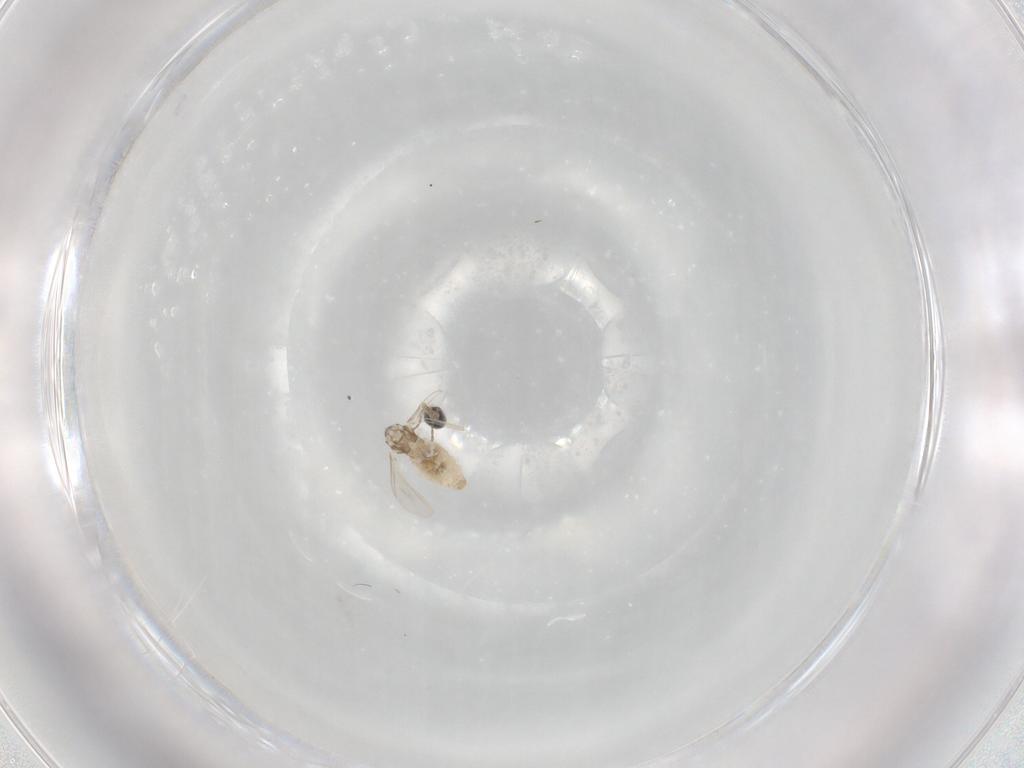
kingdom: Animalia
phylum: Arthropoda
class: Insecta
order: Diptera
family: Cecidomyiidae
